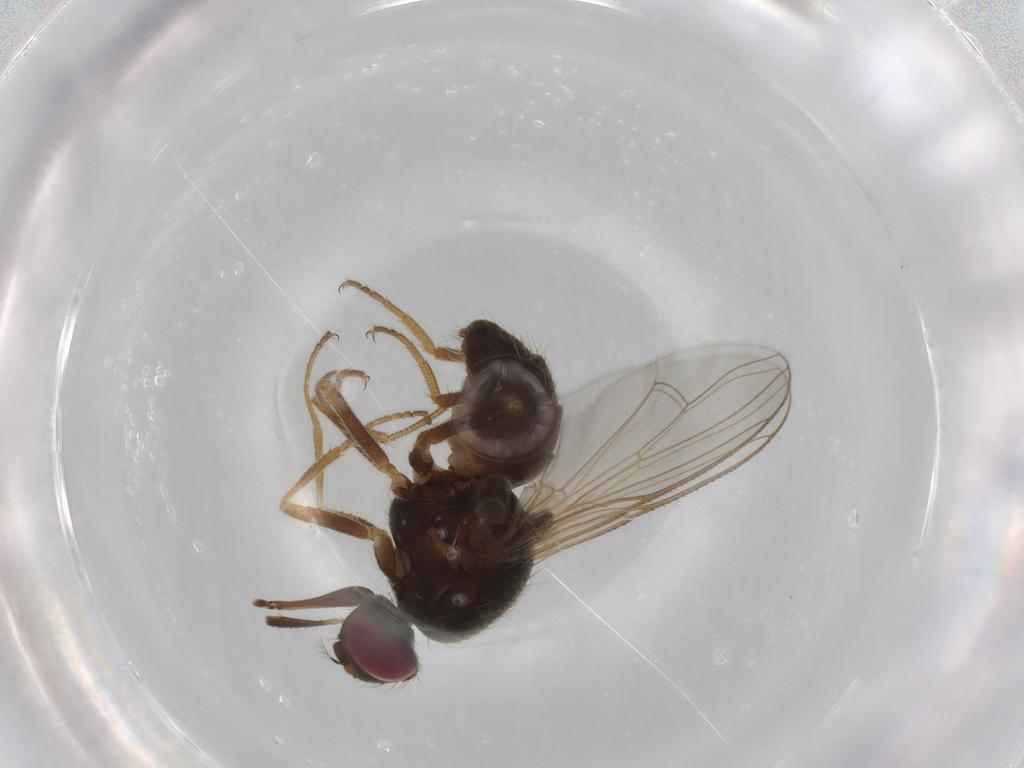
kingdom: Animalia
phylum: Arthropoda
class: Insecta
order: Diptera
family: Muscidae
